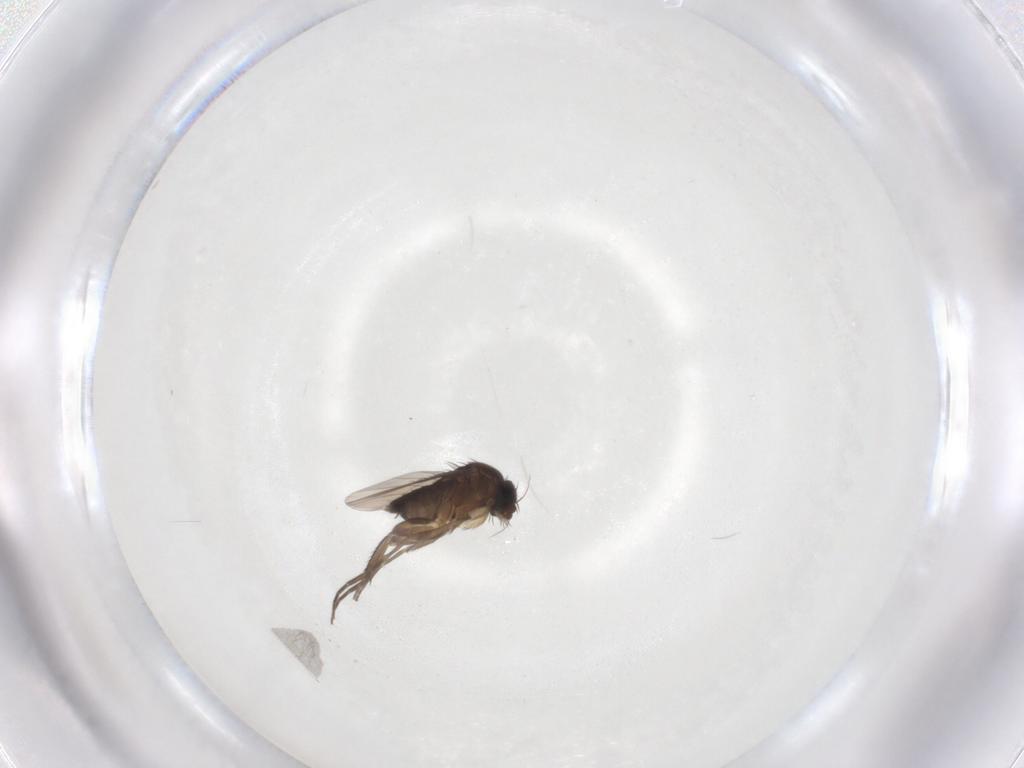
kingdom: Animalia
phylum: Arthropoda
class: Insecta
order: Diptera
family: Phoridae
